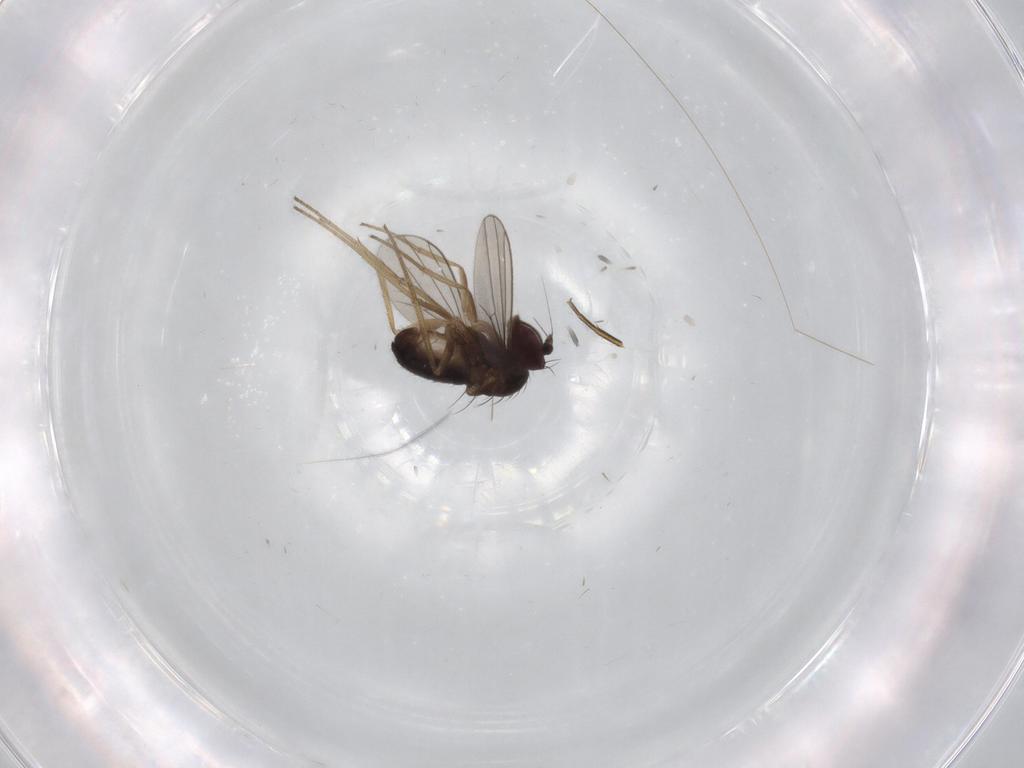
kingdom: Animalia
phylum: Arthropoda
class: Insecta
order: Diptera
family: Dolichopodidae
